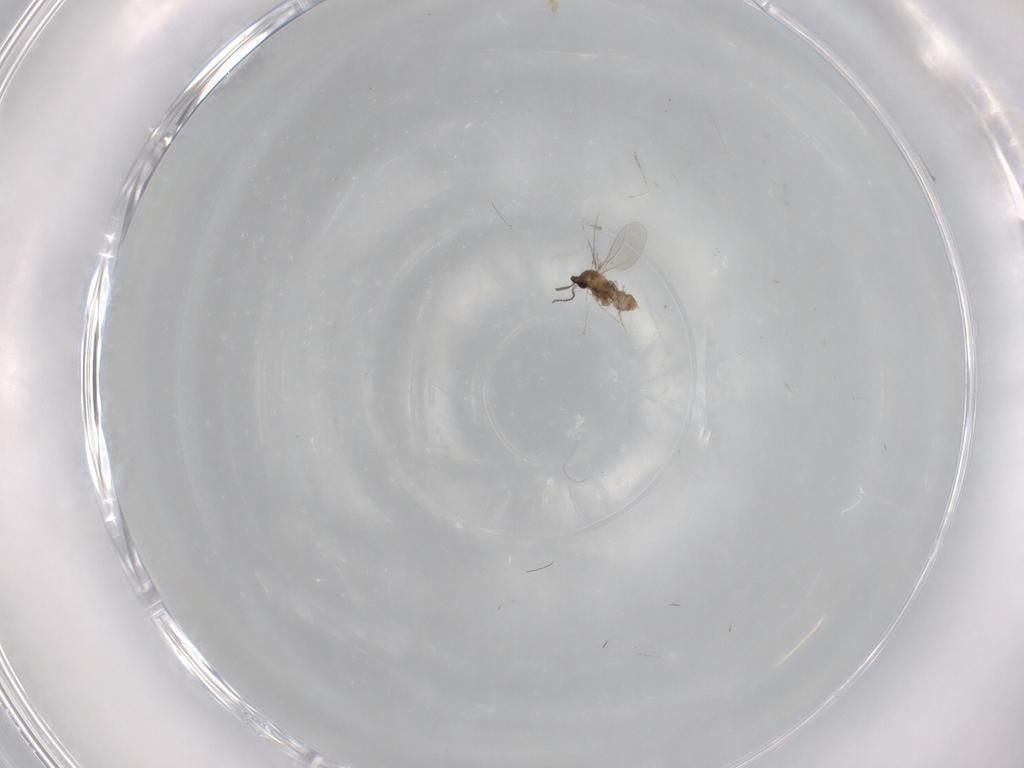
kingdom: Animalia
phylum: Arthropoda
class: Insecta
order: Diptera
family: Cecidomyiidae
